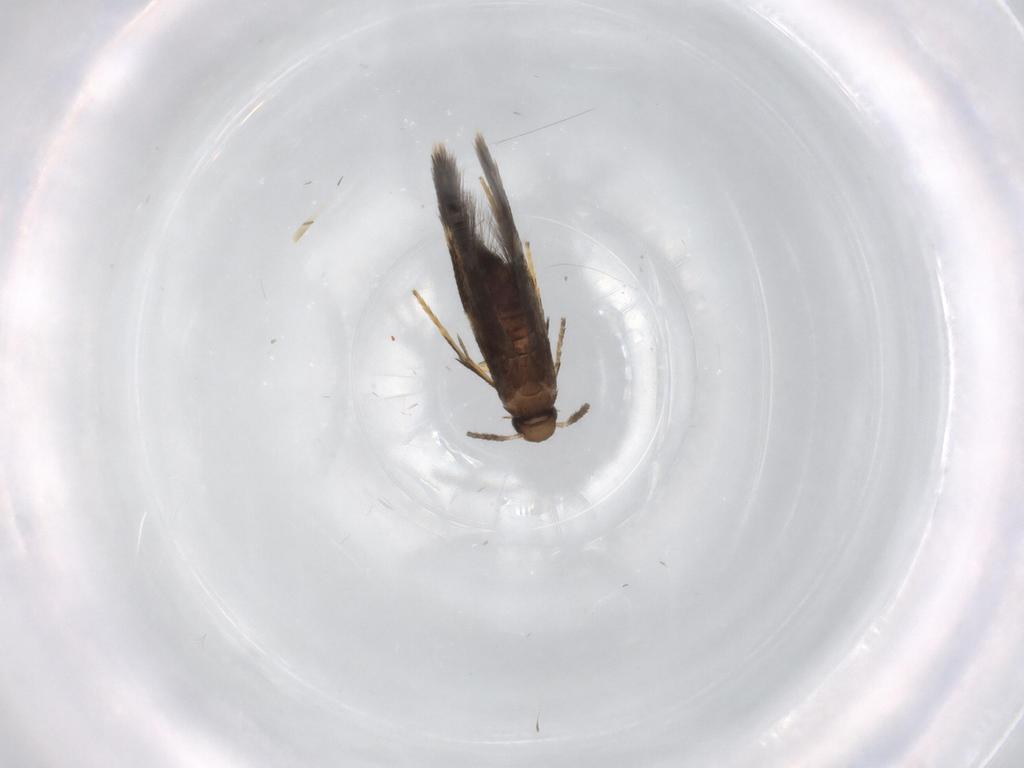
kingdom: Animalia
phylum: Arthropoda
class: Insecta
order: Lepidoptera
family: Heliozelidae
